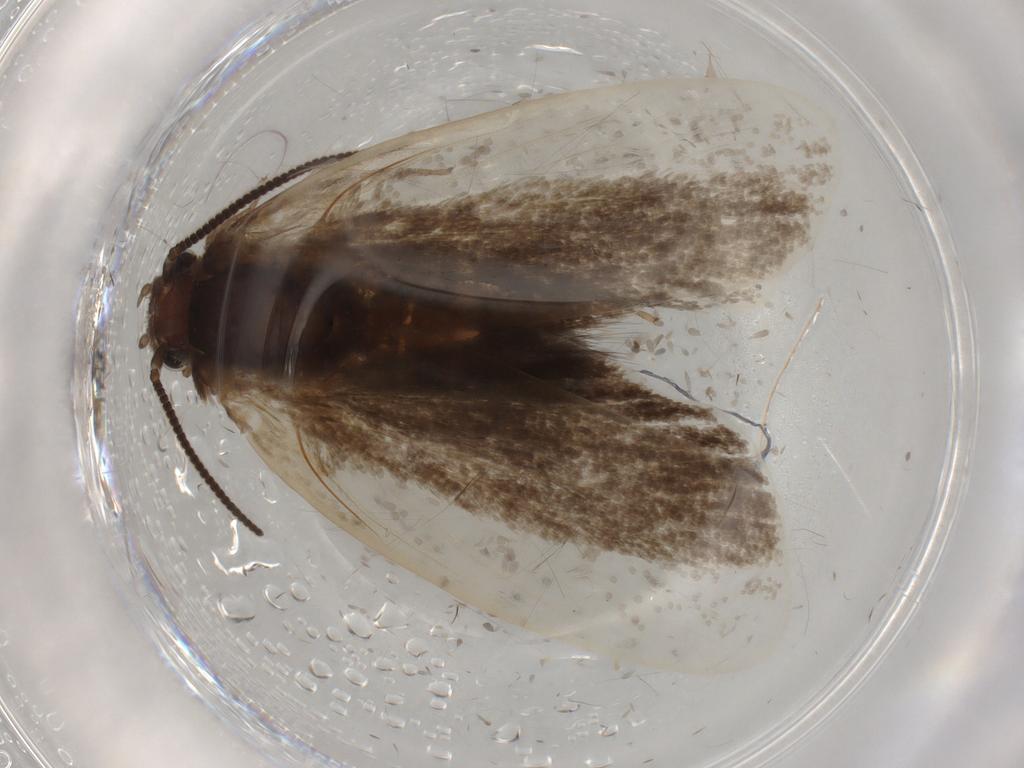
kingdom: Animalia
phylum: Arthropoda
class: Insecta
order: Lepidoptera
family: Tineidae
